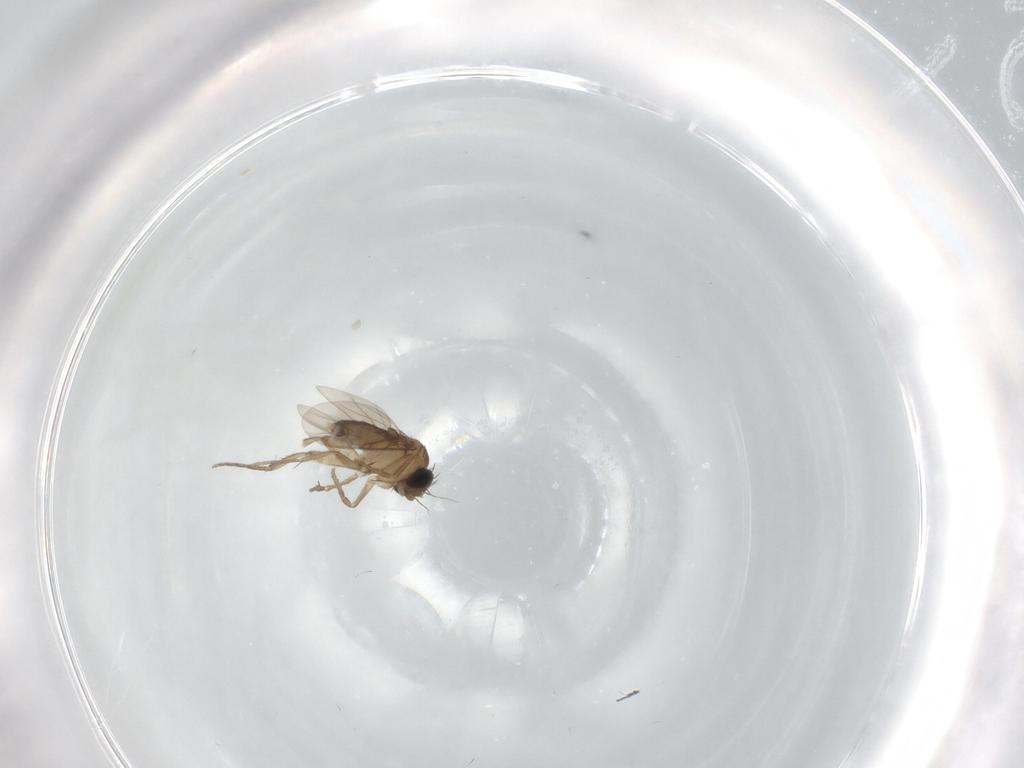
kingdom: Animalia
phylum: Arthropoda
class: Insecta
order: Diptera
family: Phoridae
